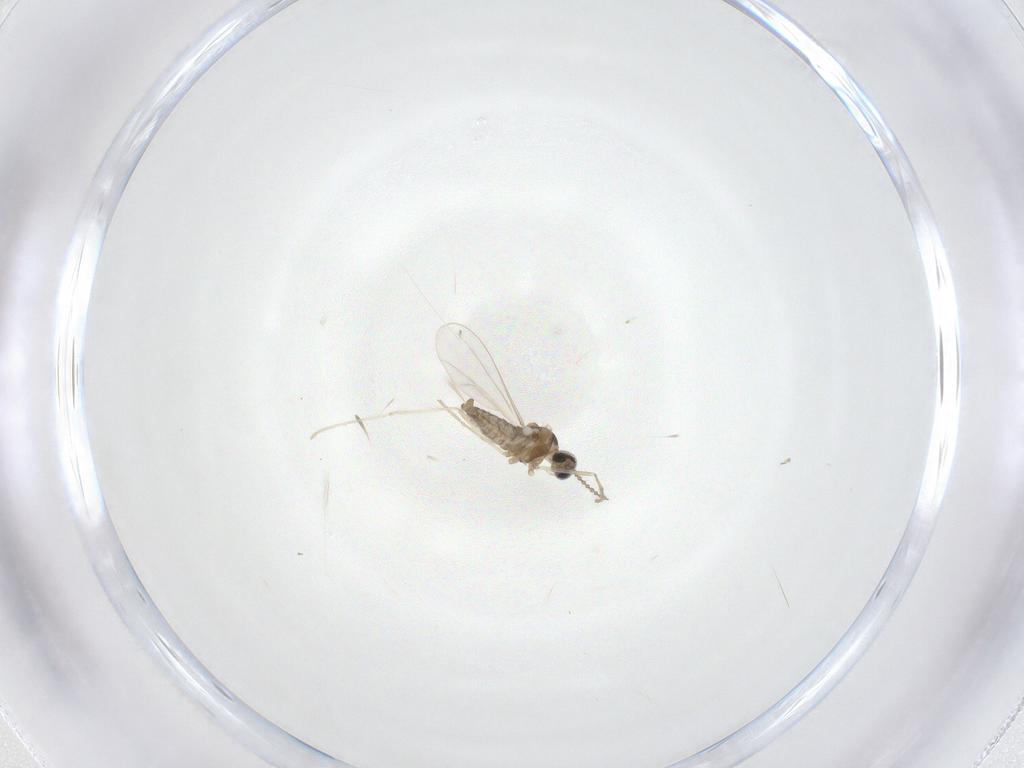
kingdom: Animalia
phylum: Arthropoda
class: Insecta
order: Diptera
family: Cecidomyiidae
